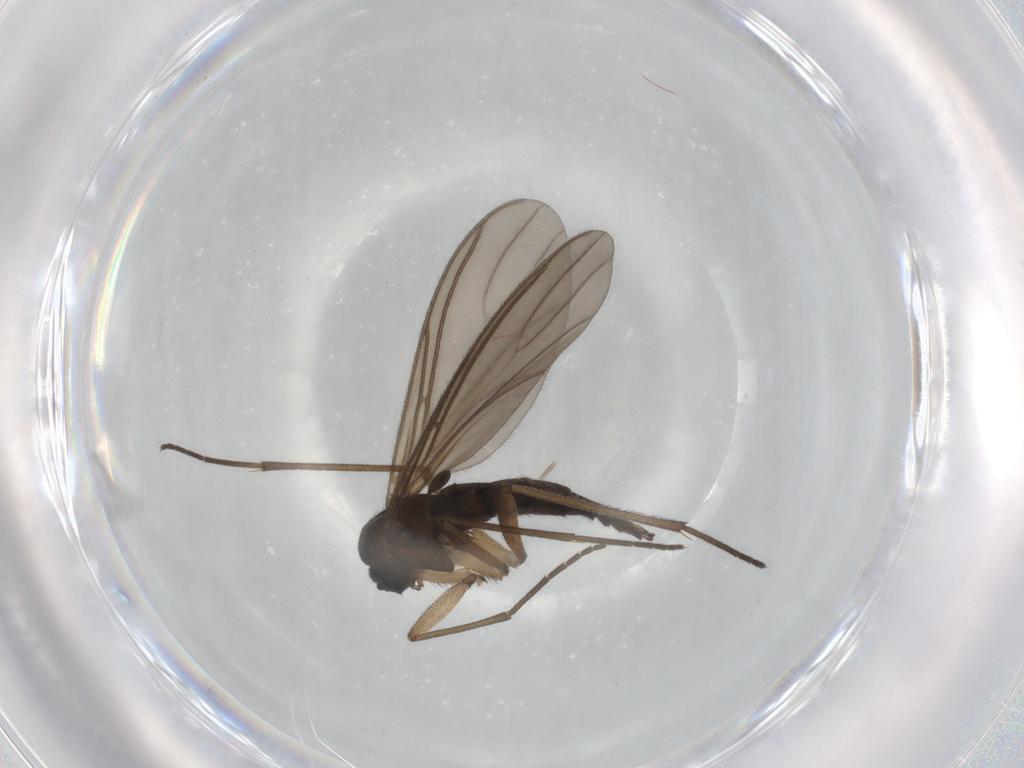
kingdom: Animalia
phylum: Arthropoda
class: Insecta
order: Diptera
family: Sciaridae
